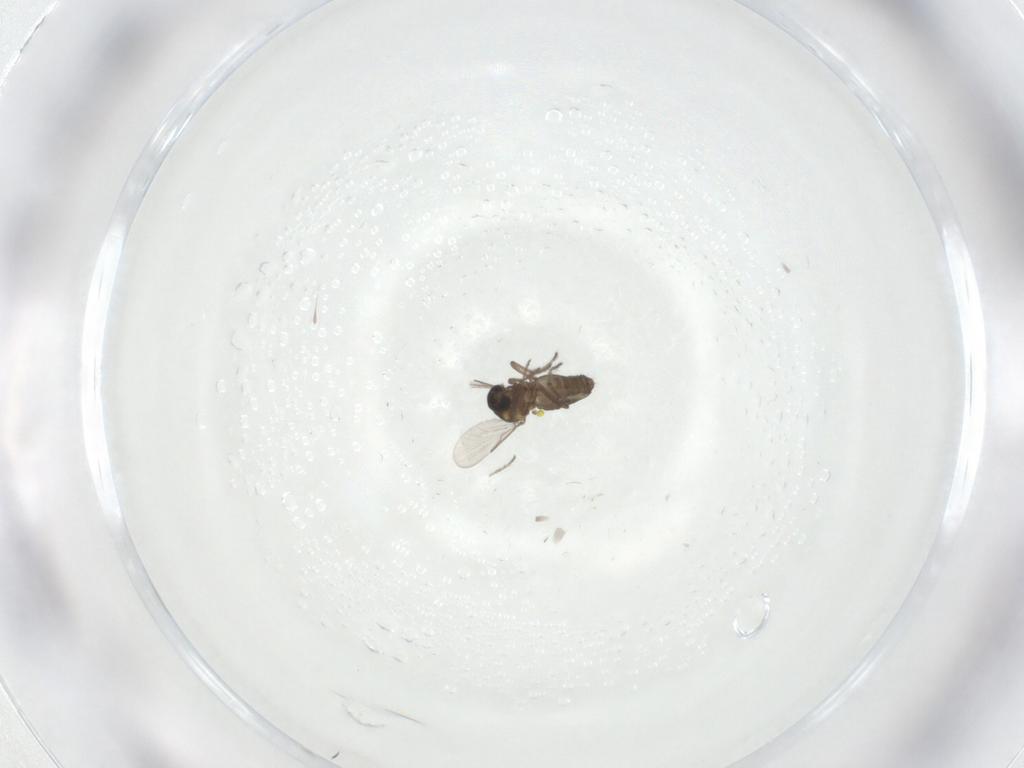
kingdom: Animalia
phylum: Arthropoda
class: Insecta
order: Diptera
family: Ceratopogonidae
